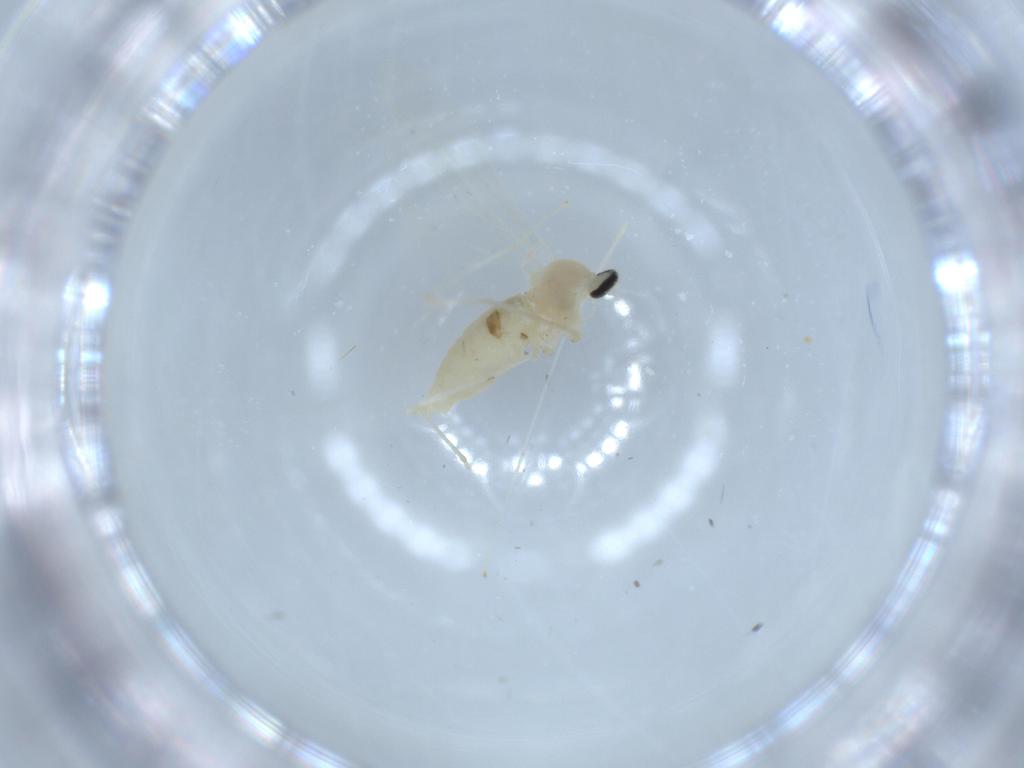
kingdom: Animalia
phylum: Arthropoda
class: Insecta
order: Diptera
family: Cecidomyiidae
